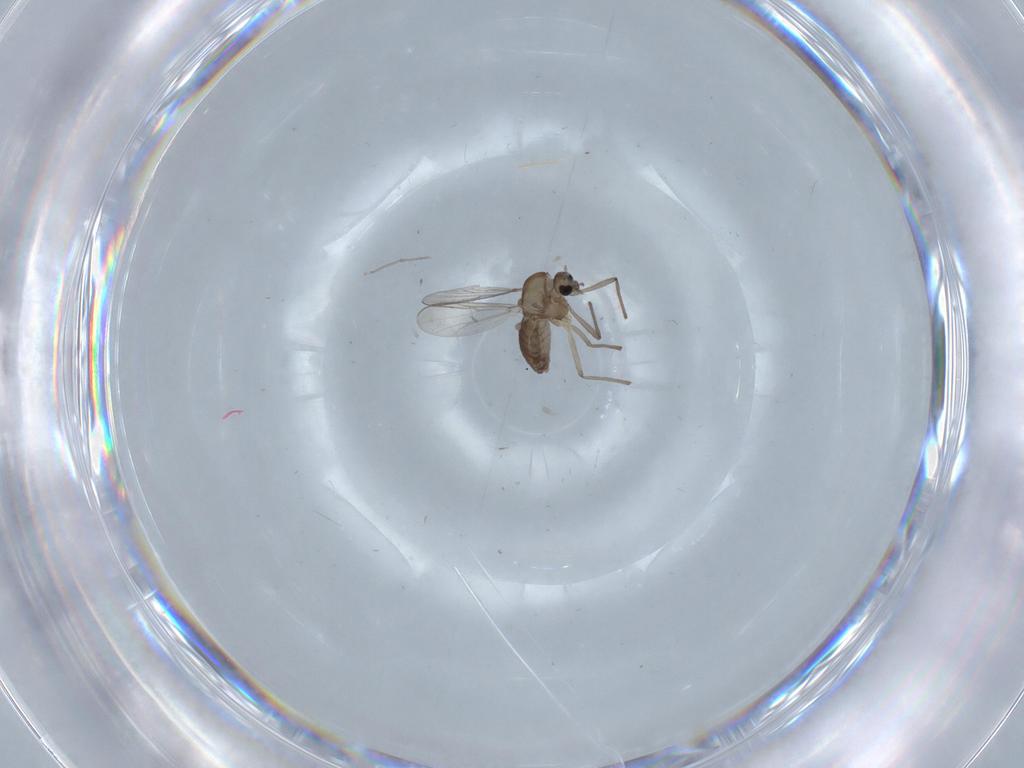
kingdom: Animalia
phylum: Arthropoda
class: Insecta
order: Diptera
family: Chironomidae
